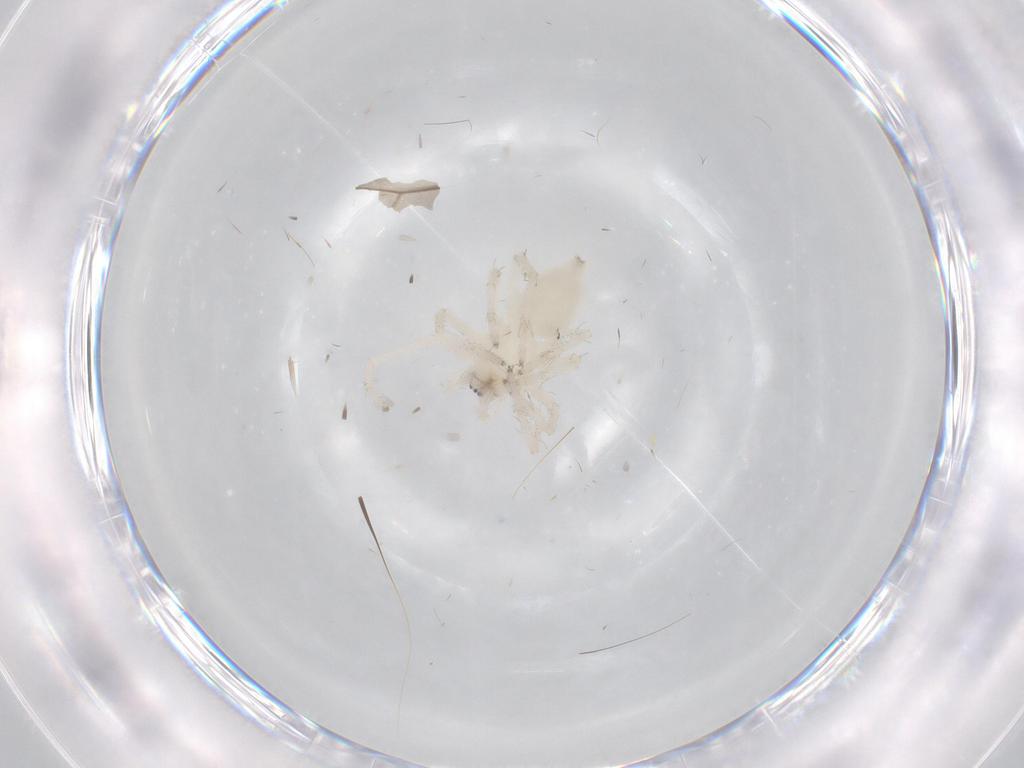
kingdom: Animalia
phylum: Arthropoda
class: Arachnida
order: Araneae
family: Anyphaenidae
